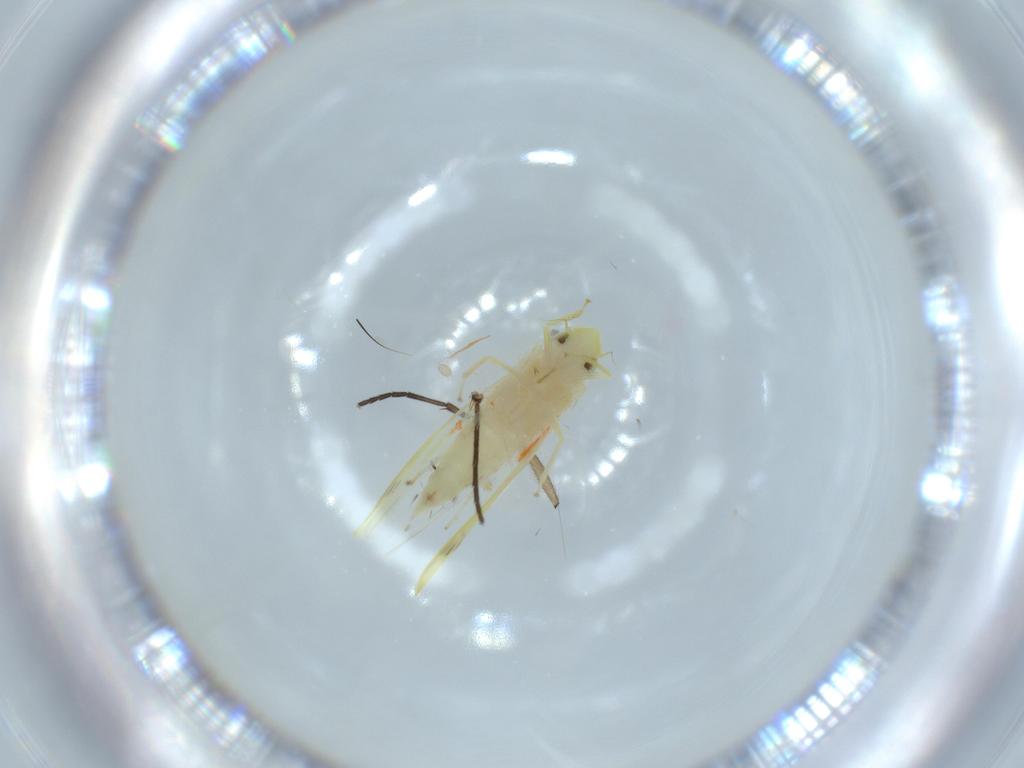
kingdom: Animalia
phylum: Arthropoda
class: Insecta
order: Hemiptera
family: Cicadellidae
